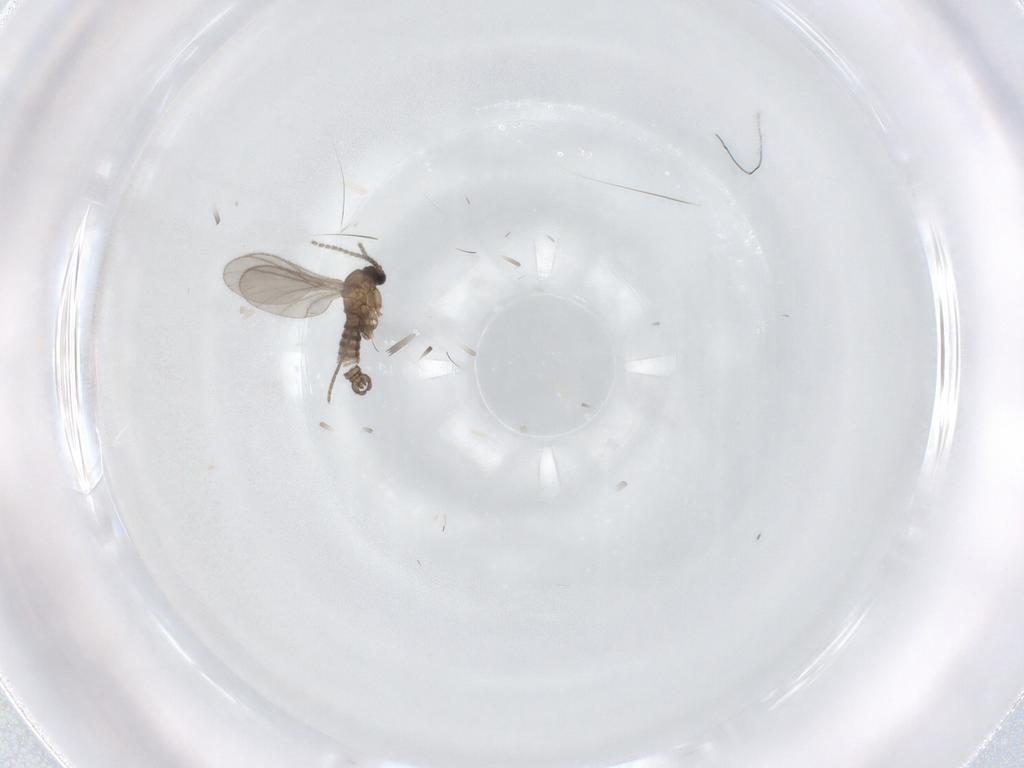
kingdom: Animalia
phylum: Arthropoda
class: Insecta
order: Diptera
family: Sciaridae
